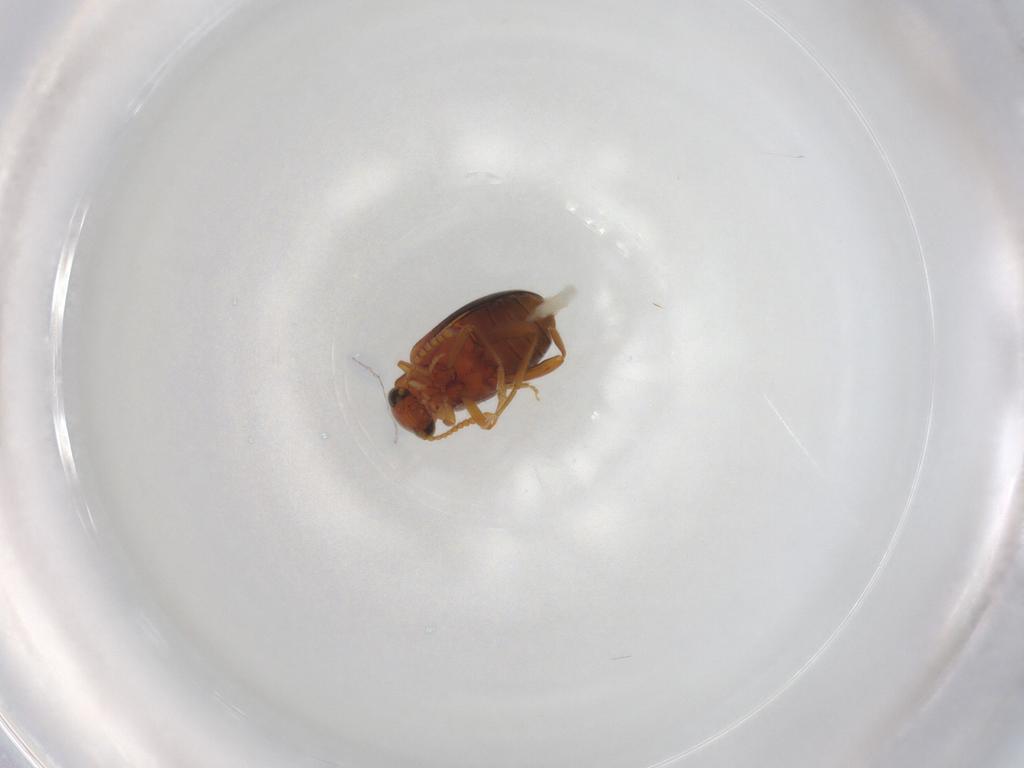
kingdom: Animalia
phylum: Arthropoda
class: Insecta
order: Coleoptera
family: Aderidae
